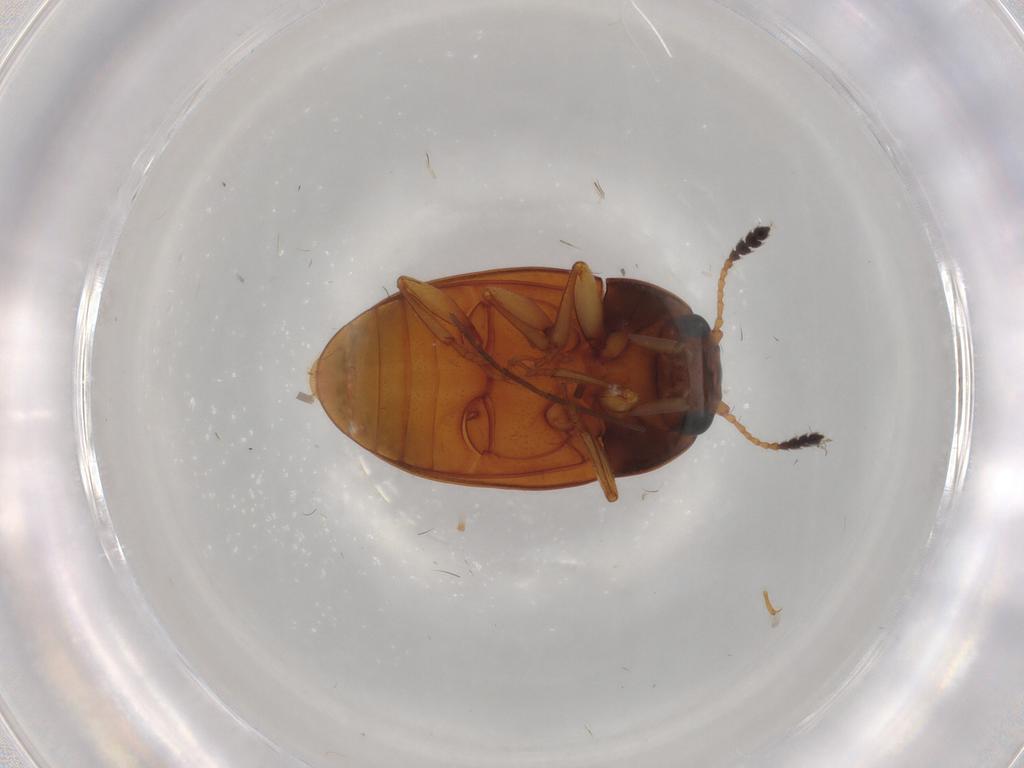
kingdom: Animalia
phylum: Arthropoda
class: Insecta
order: Coleoptera
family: Erotylidae
